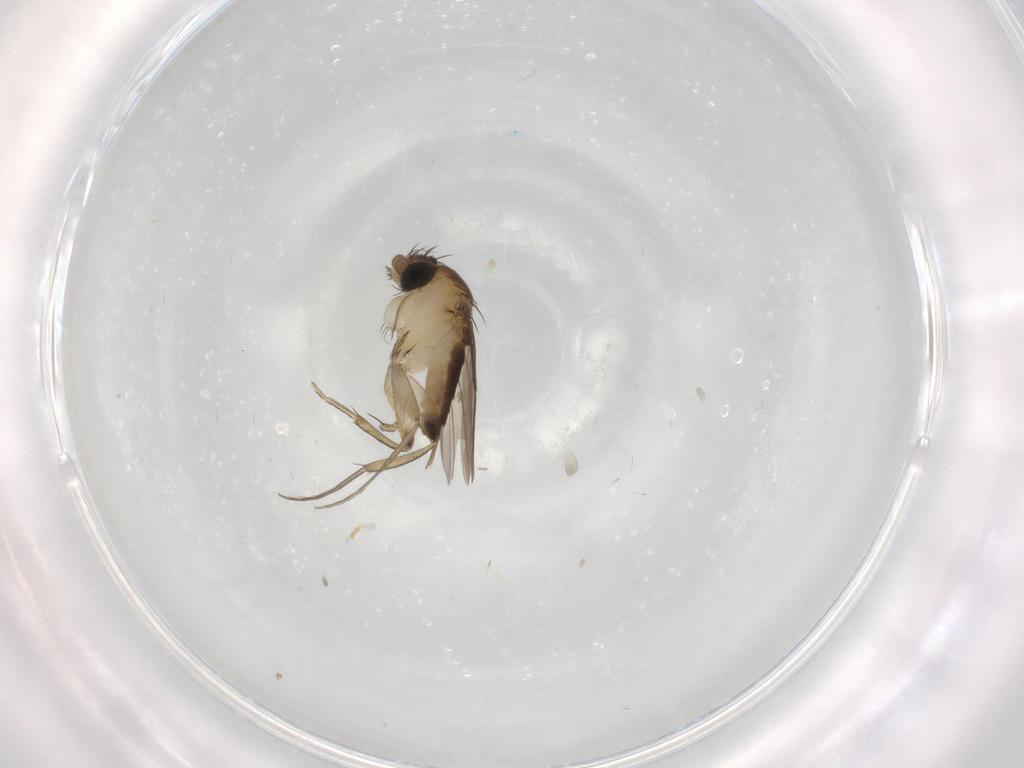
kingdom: Animalia
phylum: Arthropoda
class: Insecta
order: Diptera
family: Phoridae
